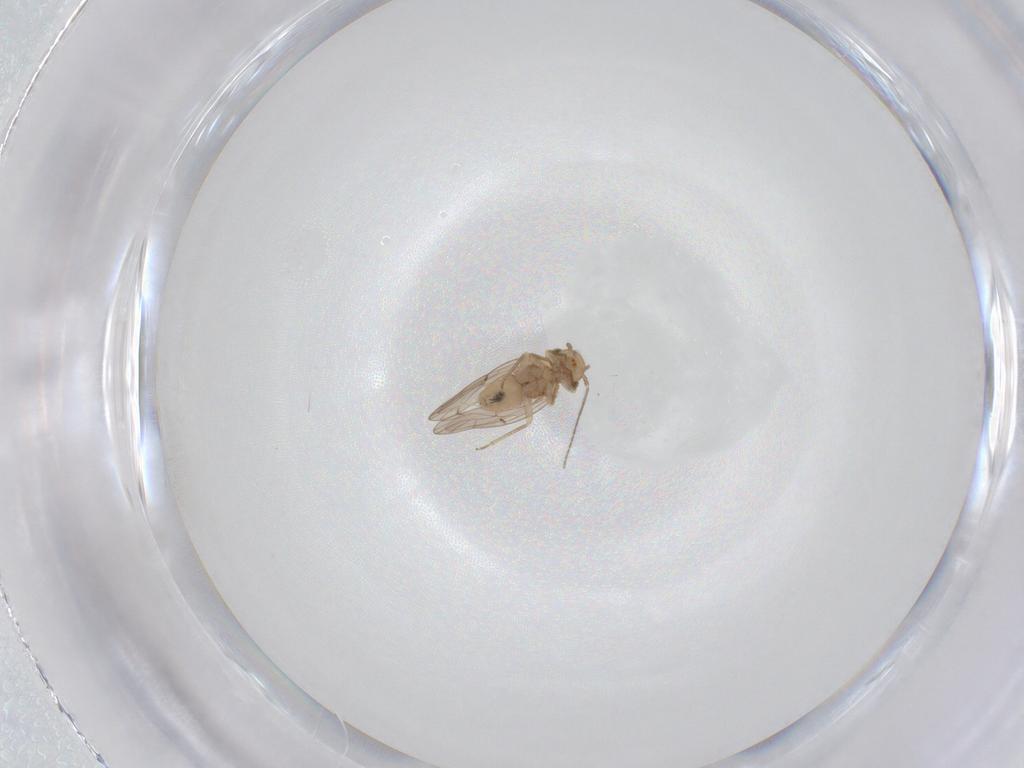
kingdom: Animalia
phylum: Arthropoda
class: Insecta
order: Psocodea
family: Ectopsocidae
